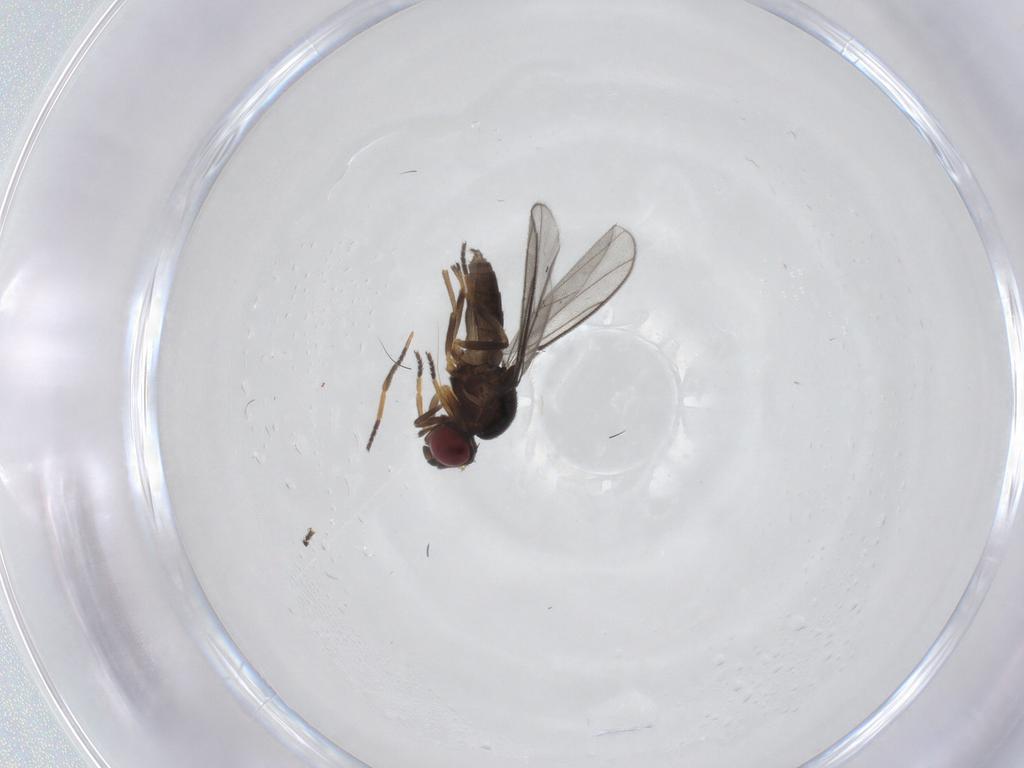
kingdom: Animalia
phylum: Arthropoda
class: Insecta
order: Diptera
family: Chloropidae
